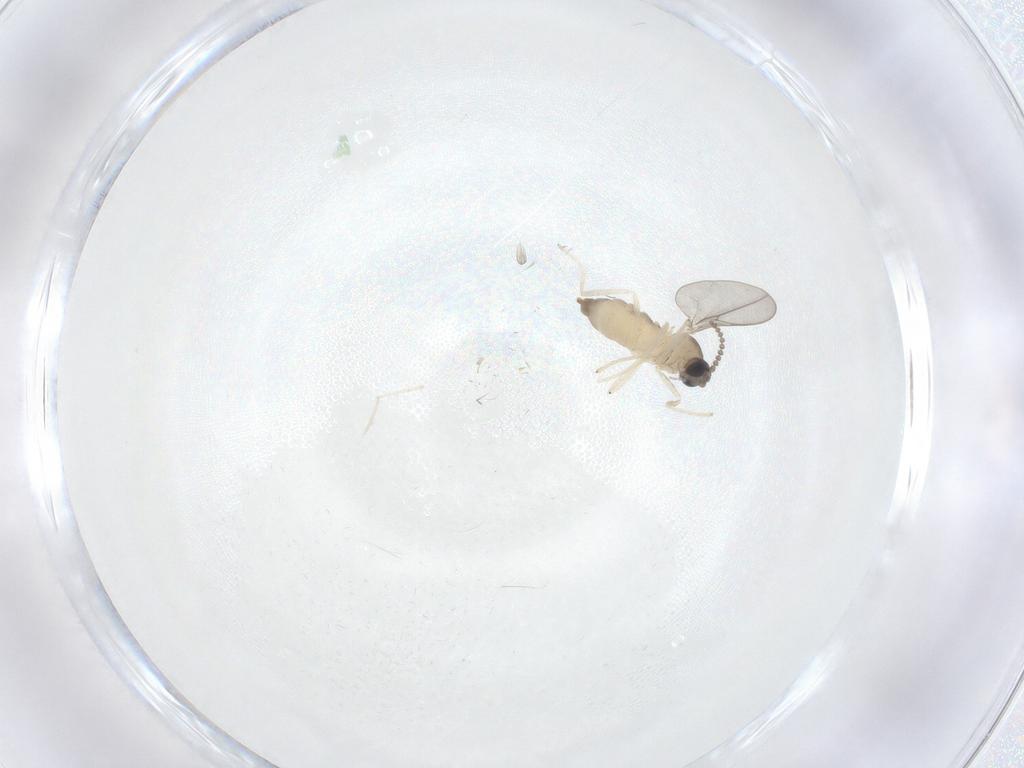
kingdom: Animalia
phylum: Arthropoda
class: Insecta
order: Diptera
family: Cecidomyiidae
